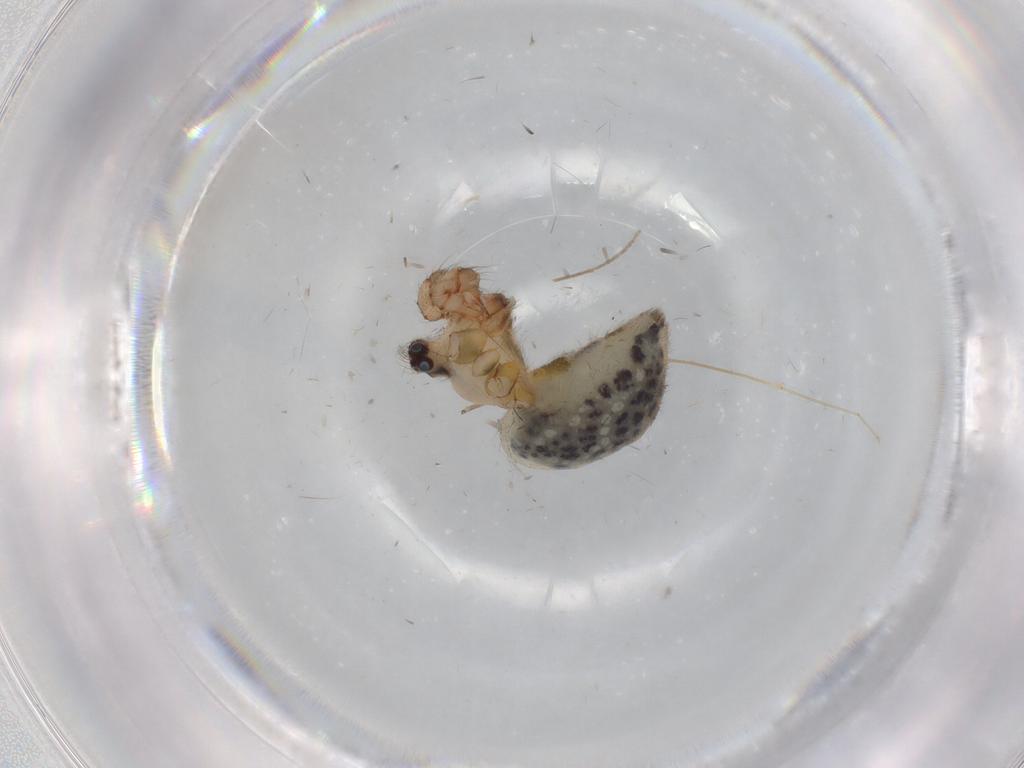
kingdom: Animalia
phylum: Arthropoda
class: Arachnida
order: Araneae
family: Pholcidae
